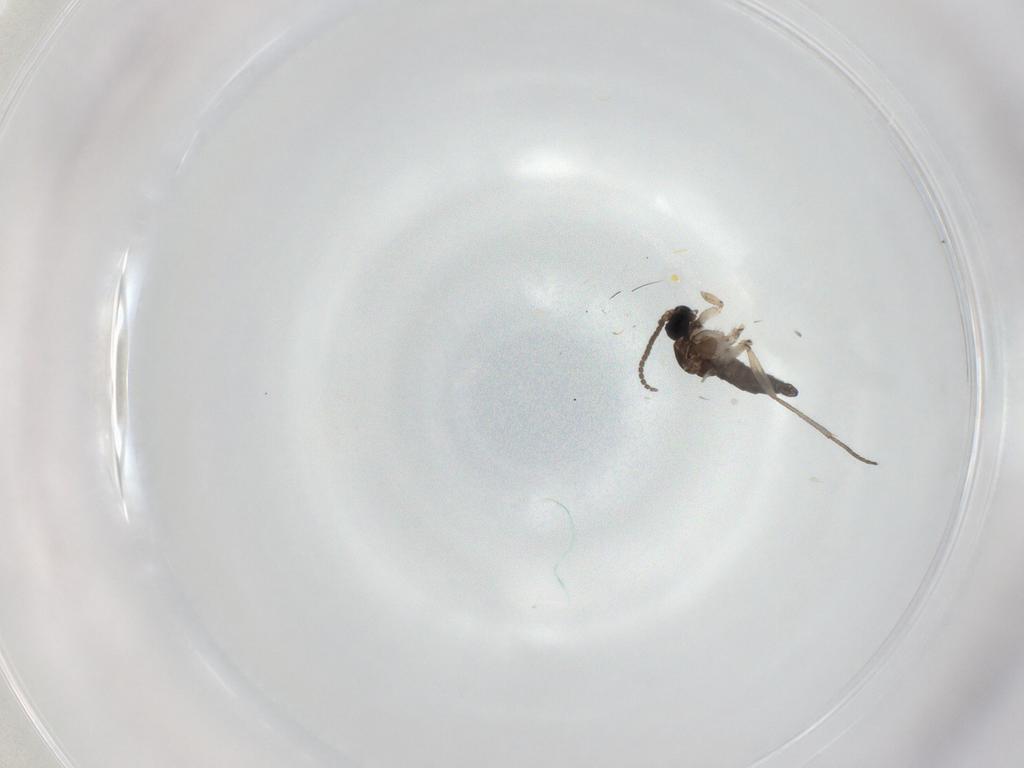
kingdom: Animalia
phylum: Arthropoda
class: Insecta
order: Diptera
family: Sciaridae
